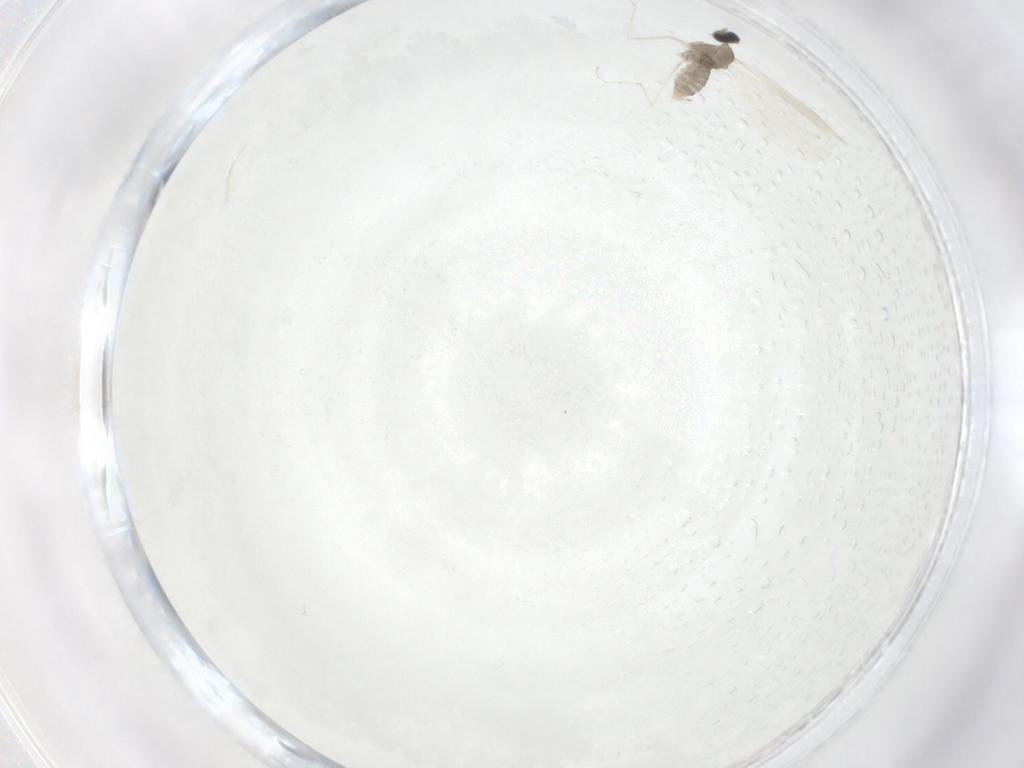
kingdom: Animalia
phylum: Arthropoda
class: Insecta
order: Diptera
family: Cecidomyiidae
